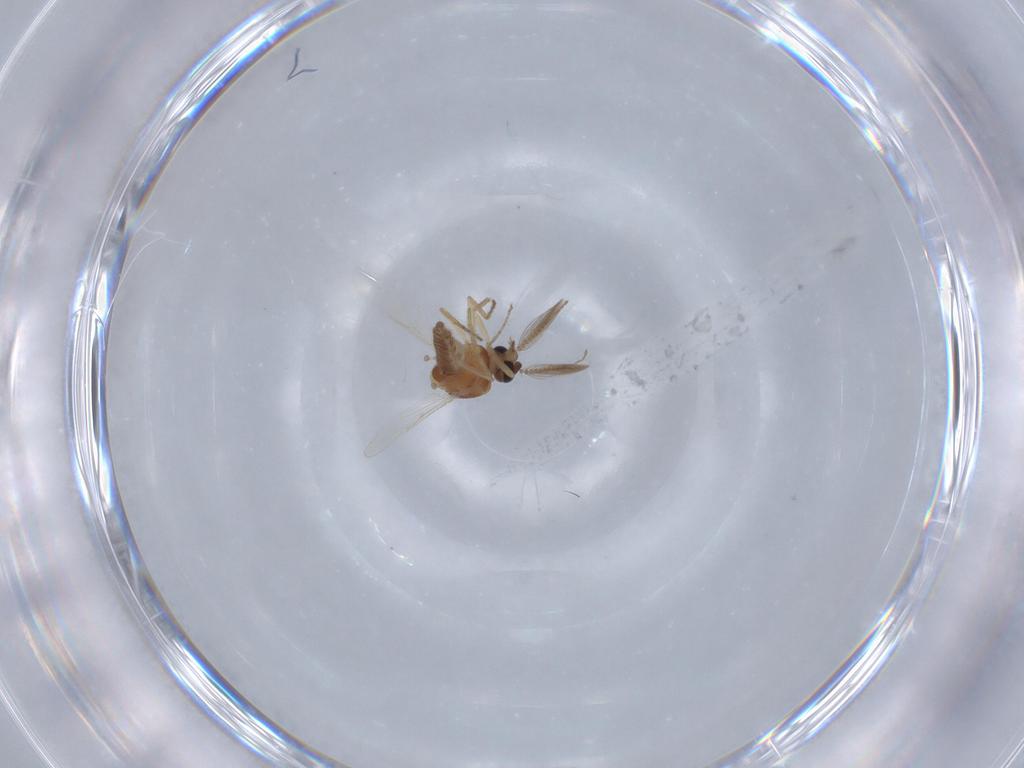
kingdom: Animalia
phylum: Arthropoda
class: Insecta
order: Diptera
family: Ceratopogonidae
